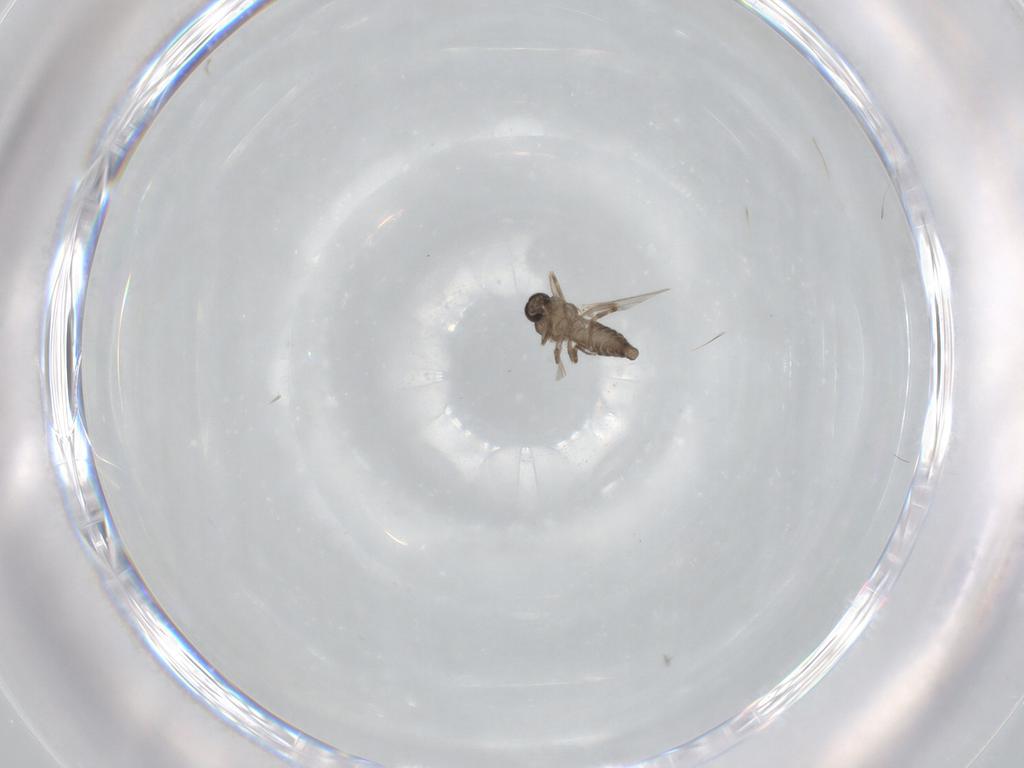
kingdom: Animalia
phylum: Arthropoda
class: Insecta
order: Diptera
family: Ceratopogonidae
